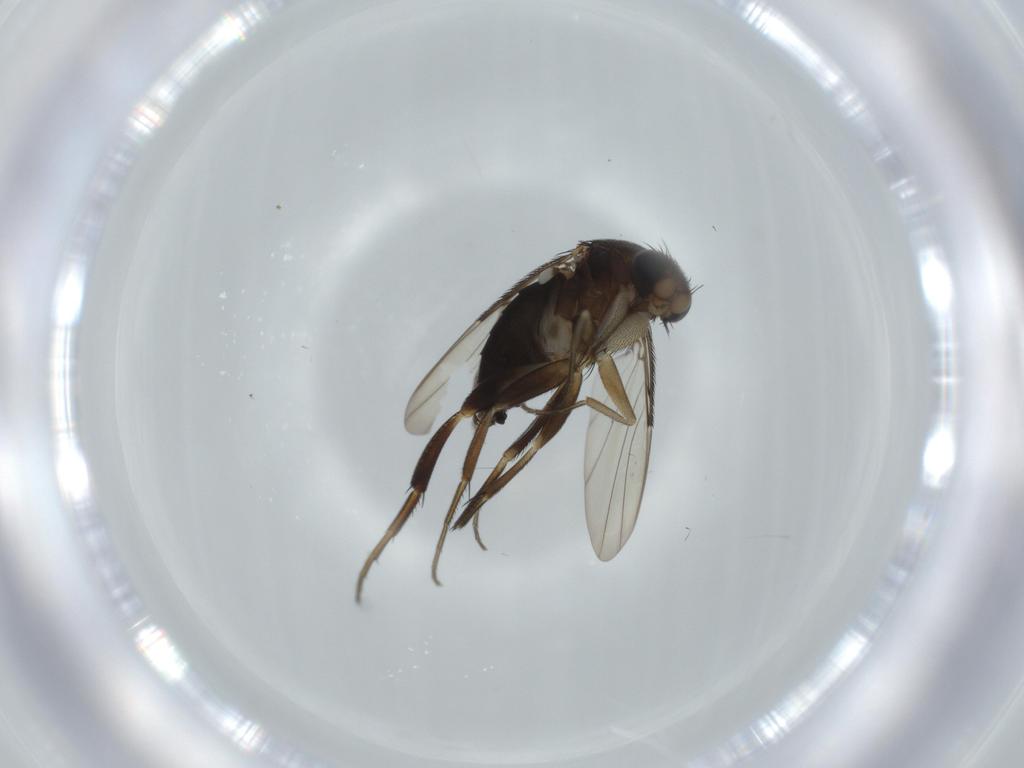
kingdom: Animalia
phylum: Arthropoda
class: Insecta
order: Diptera
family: Phoridae
